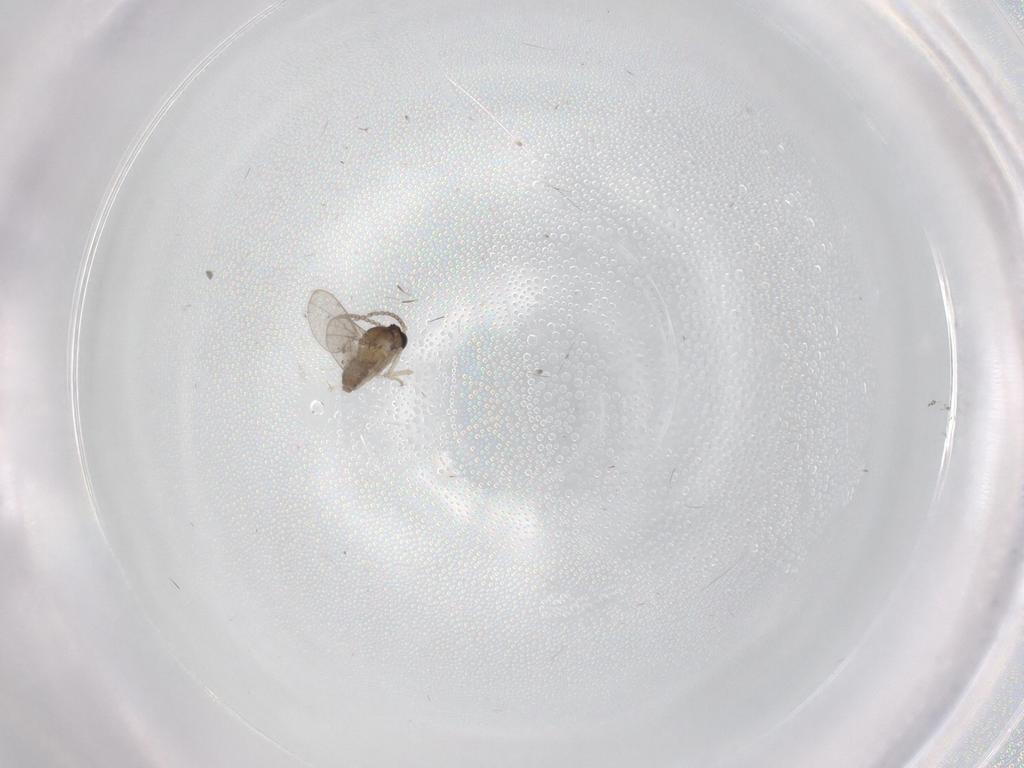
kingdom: Animalia
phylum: Arthropoda
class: Insecta
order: Diptera
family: Cecidomyiidae
